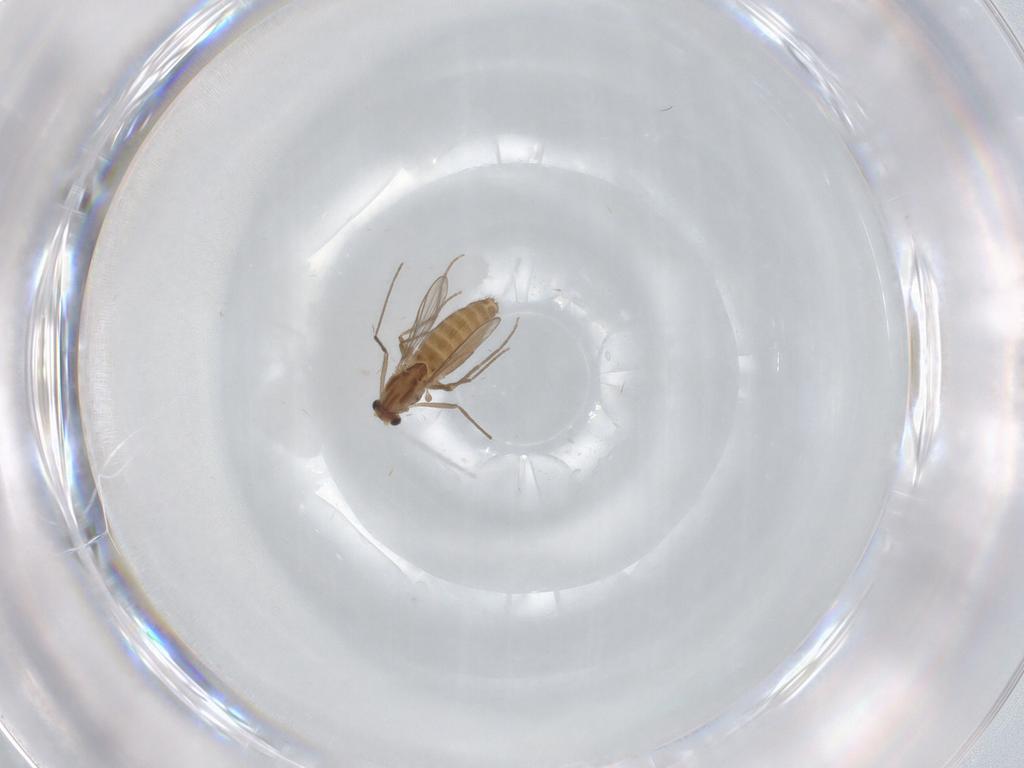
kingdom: Animalia
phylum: Arthropoda
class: Insecta
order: Diptera
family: Chironomidae
